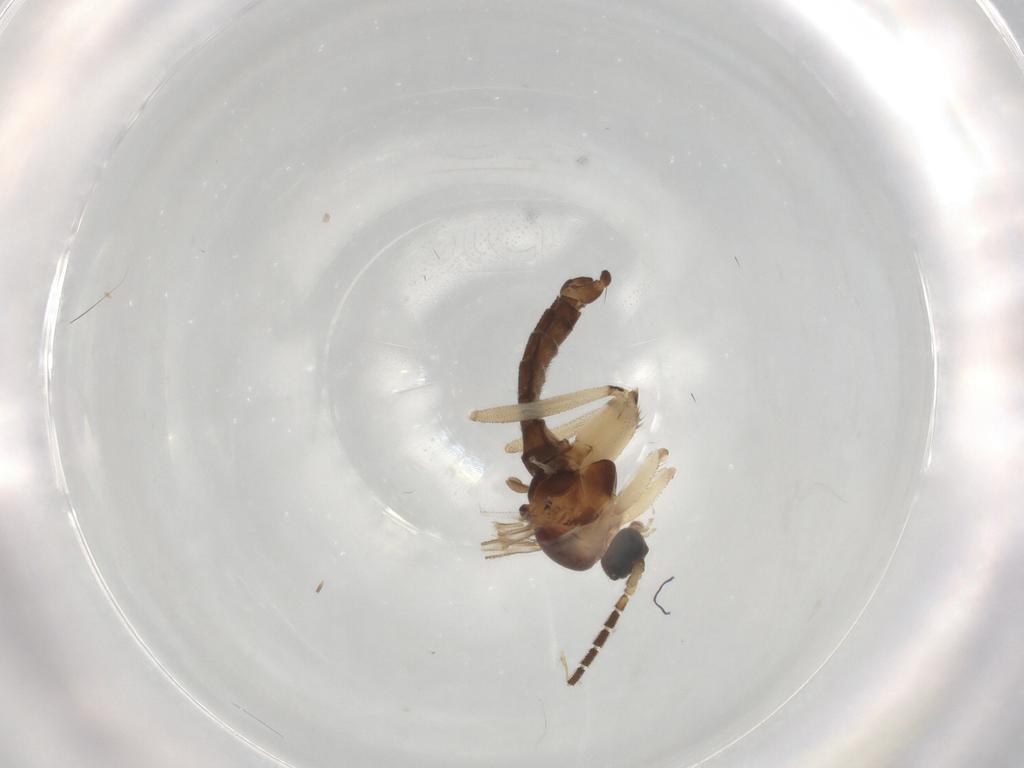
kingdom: Animalia
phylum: Arthropoda
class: Insecta
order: Diptera
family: Sciaridae
